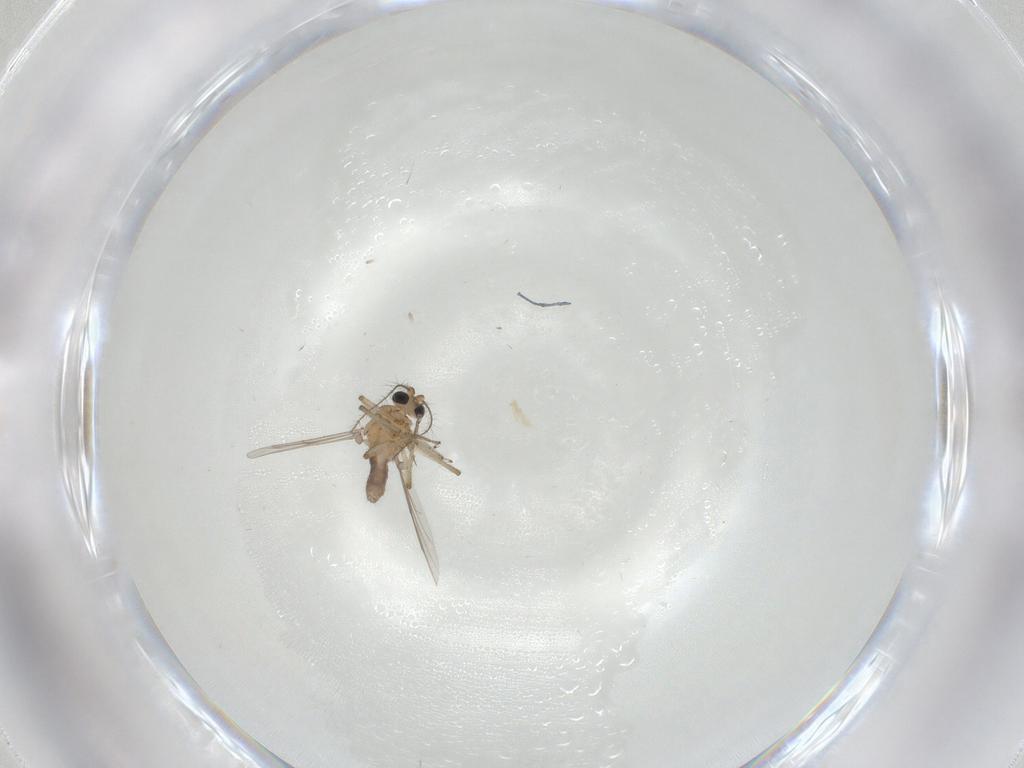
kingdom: Animalia
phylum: Arthropoda
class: Insecta
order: Diptera
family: Ceratopogonidae
